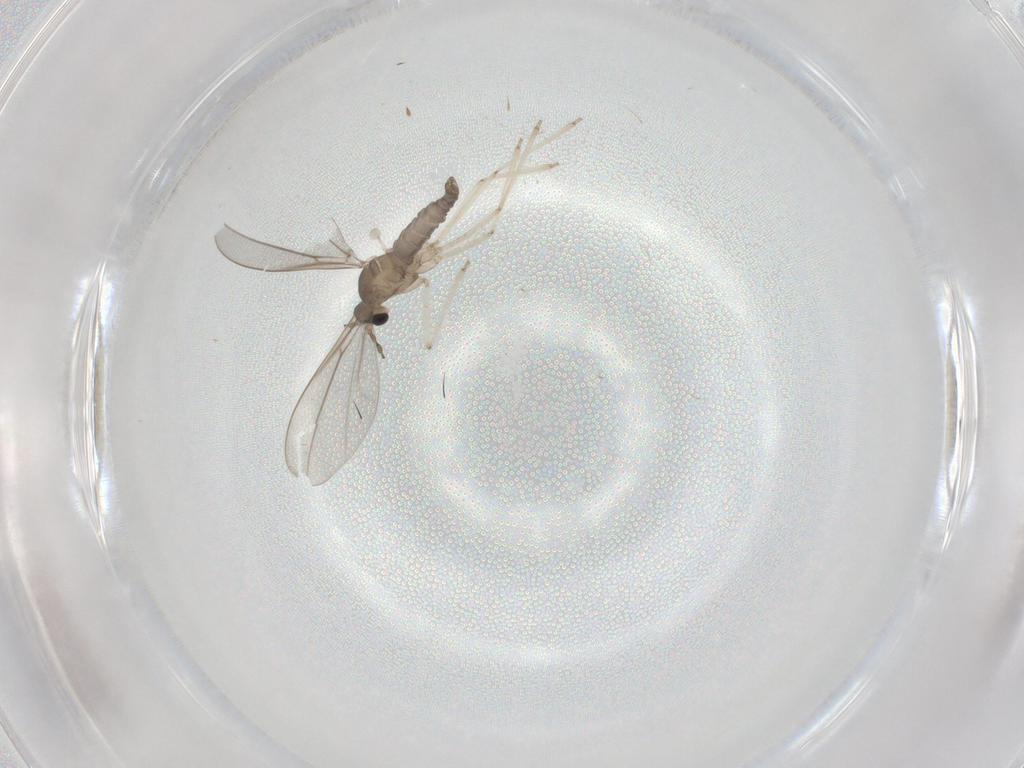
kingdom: Animalia
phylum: Arthropoda
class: Insecta
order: Diptera
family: Cecidomyiidae
